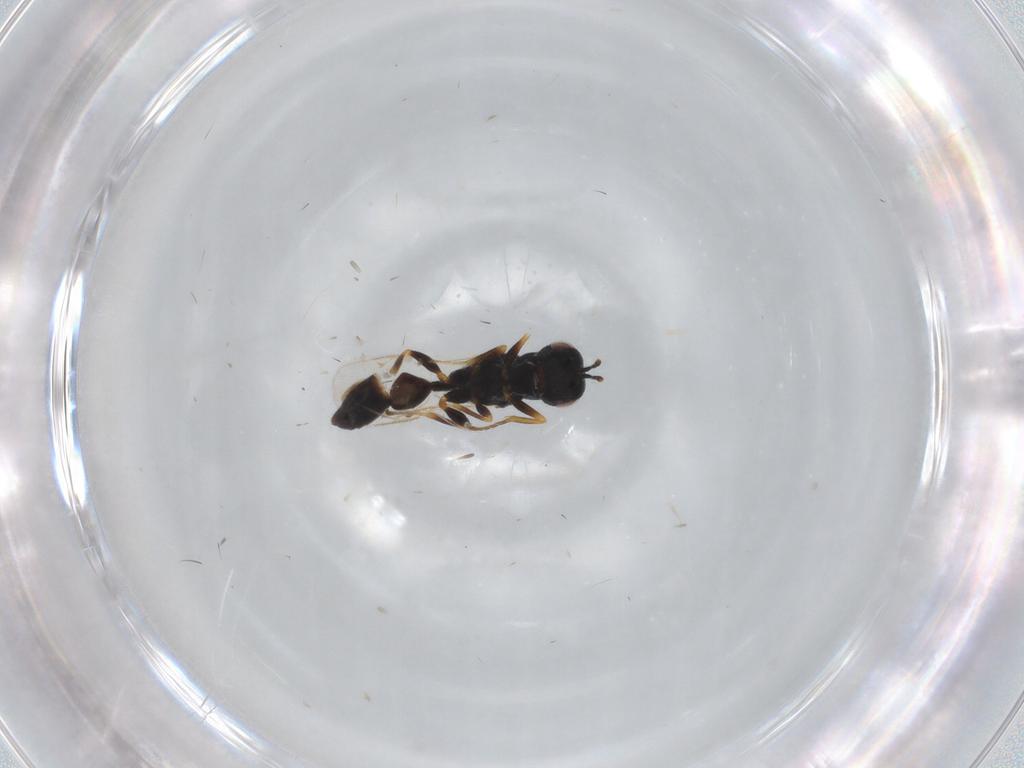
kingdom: Animalia
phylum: Arthropoda
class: Insecta
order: Hymenoptera
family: Eurytomidae
